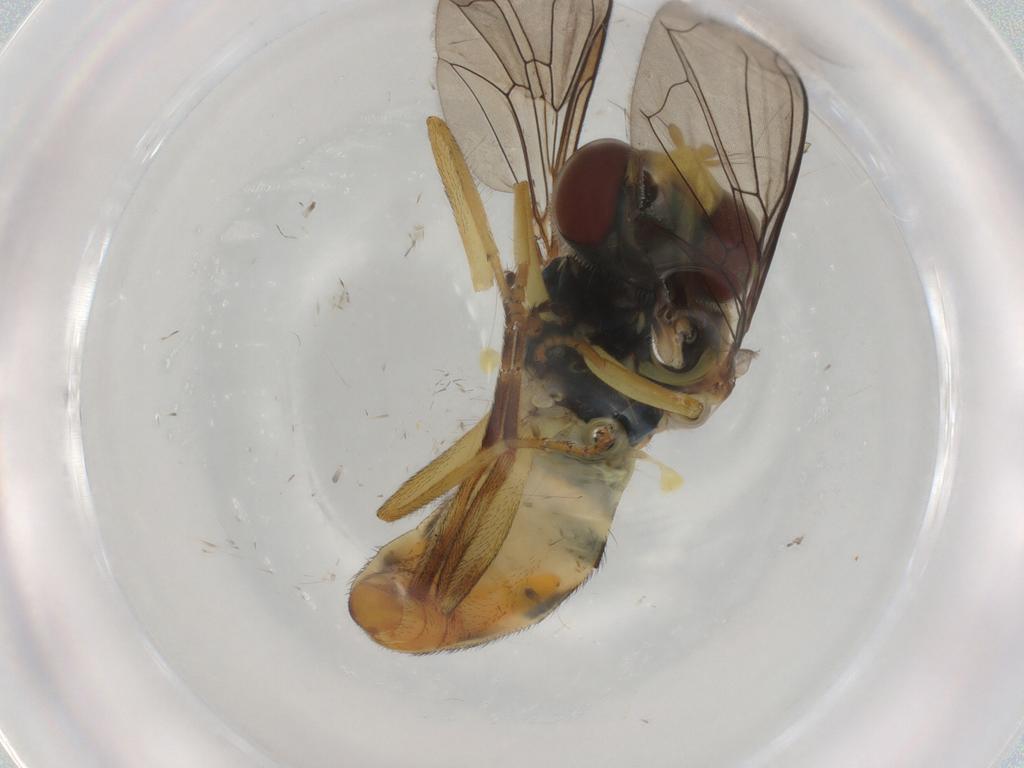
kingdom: Animalia
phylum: Arthropoda
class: Insecta
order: Diptera
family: Syrphidae
